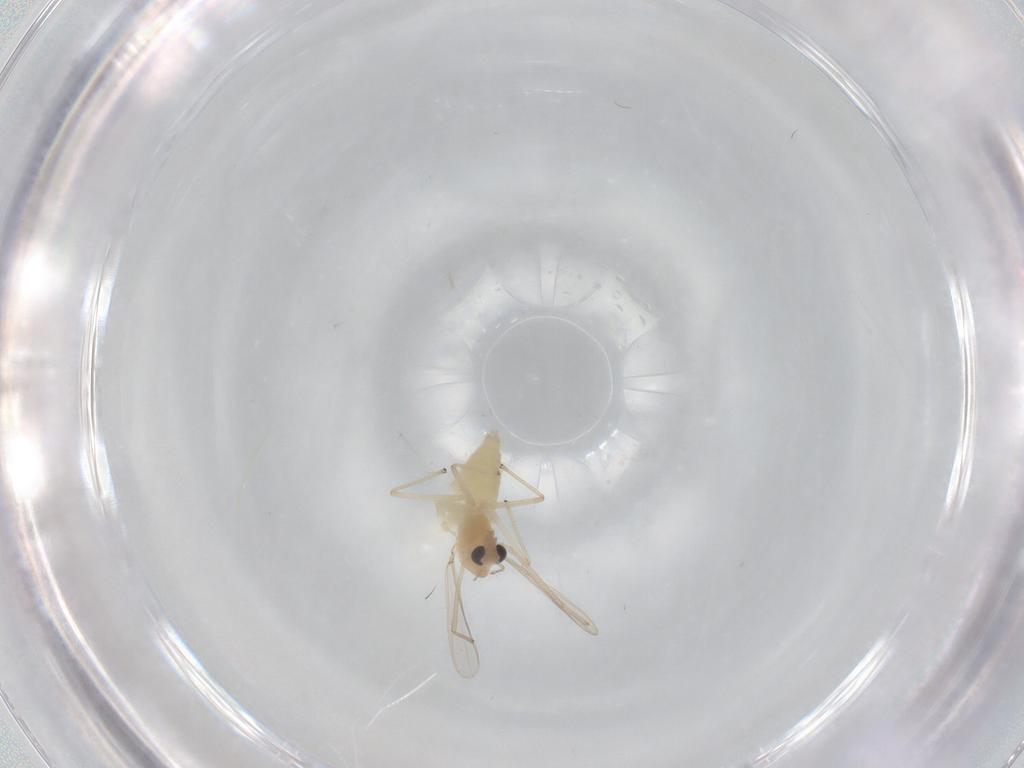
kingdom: Animalia
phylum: Arthropoda
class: Insecta
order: Diptera
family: Chironomidae
